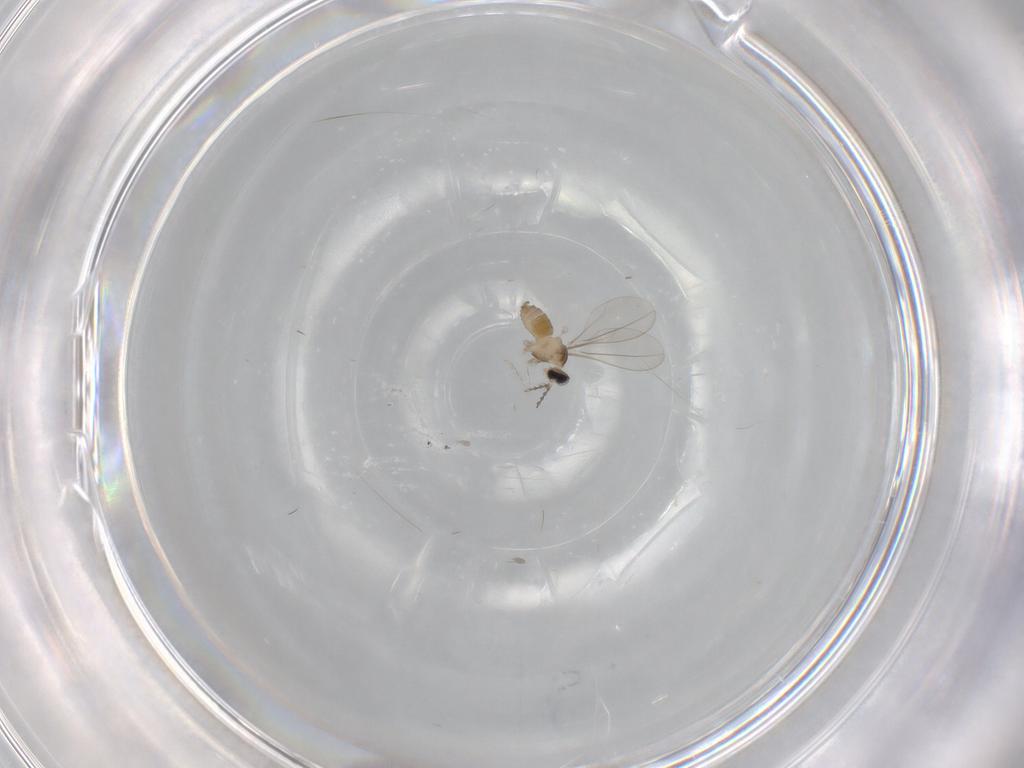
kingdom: Animalia
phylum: Arthropoda
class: Insecta
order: Diptera
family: Cecidomyiidae
